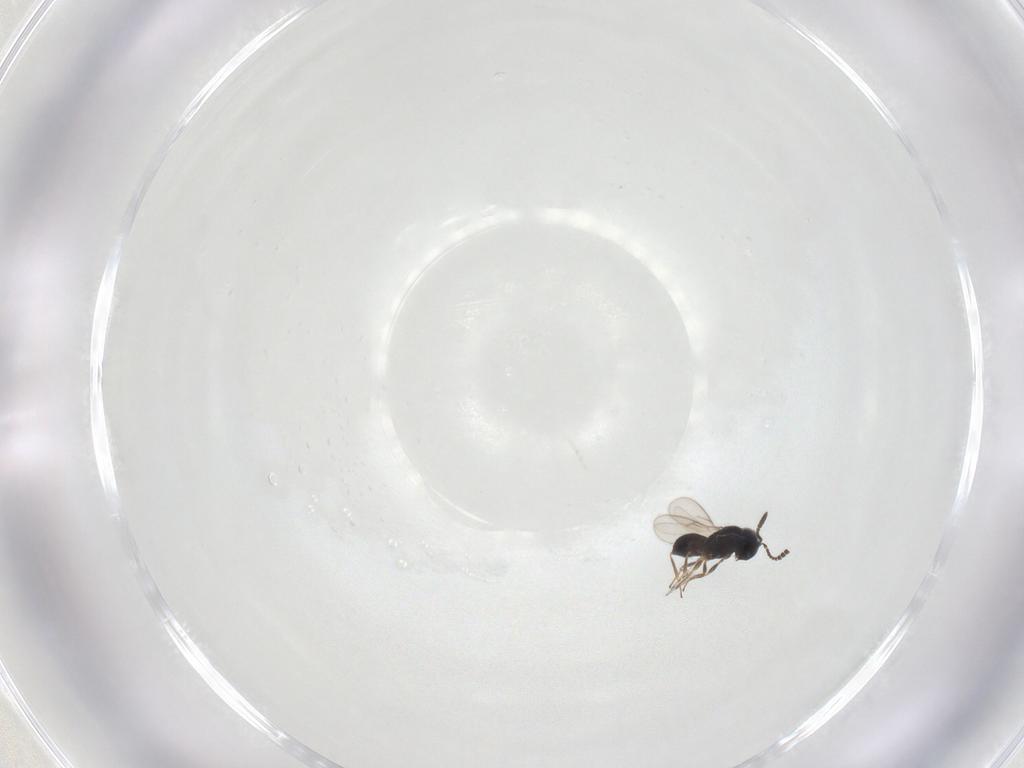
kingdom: Animalia
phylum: Arthropoda
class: Insecta
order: Hymenoptera
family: Scelionidae
